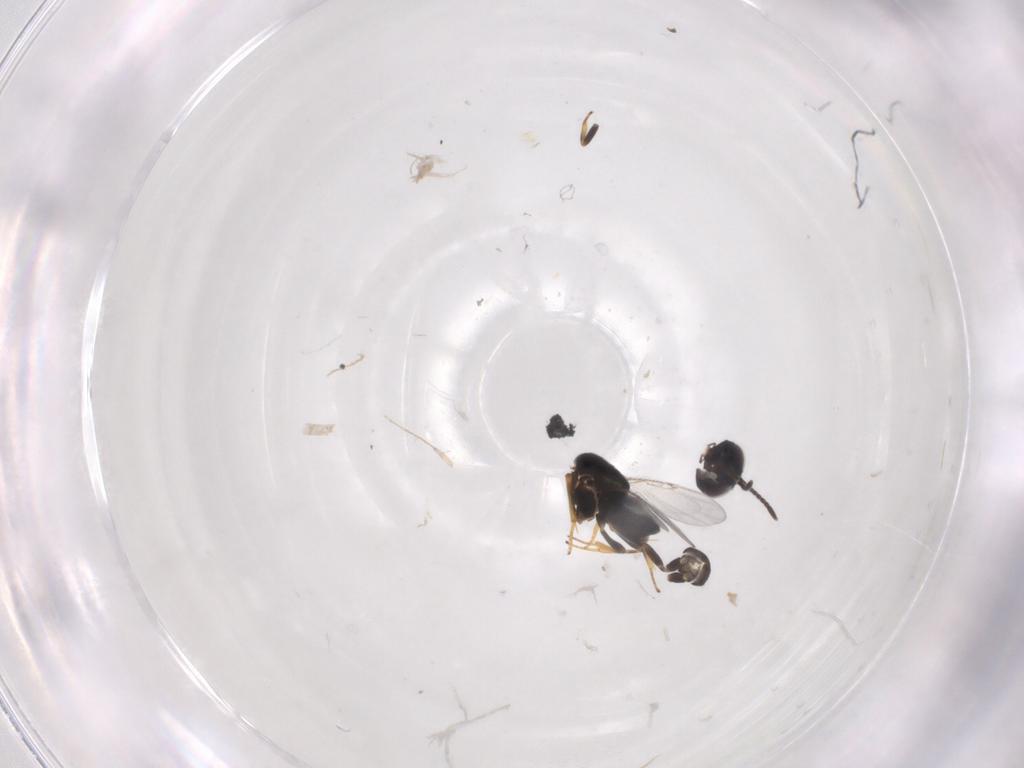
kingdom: Animalia
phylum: Arthropoda
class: Insecta
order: Hymenoptera
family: Encyrtidae
